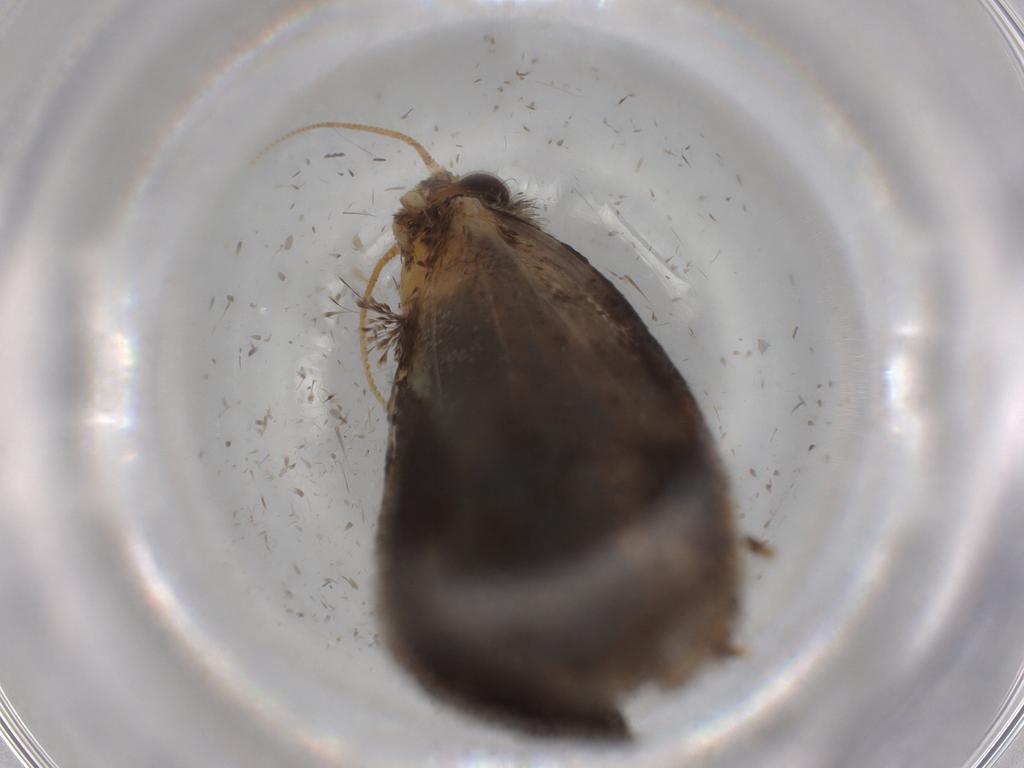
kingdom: Animalia
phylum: Arthropoda
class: Insecta
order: Lepidoptera
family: Tineidae
